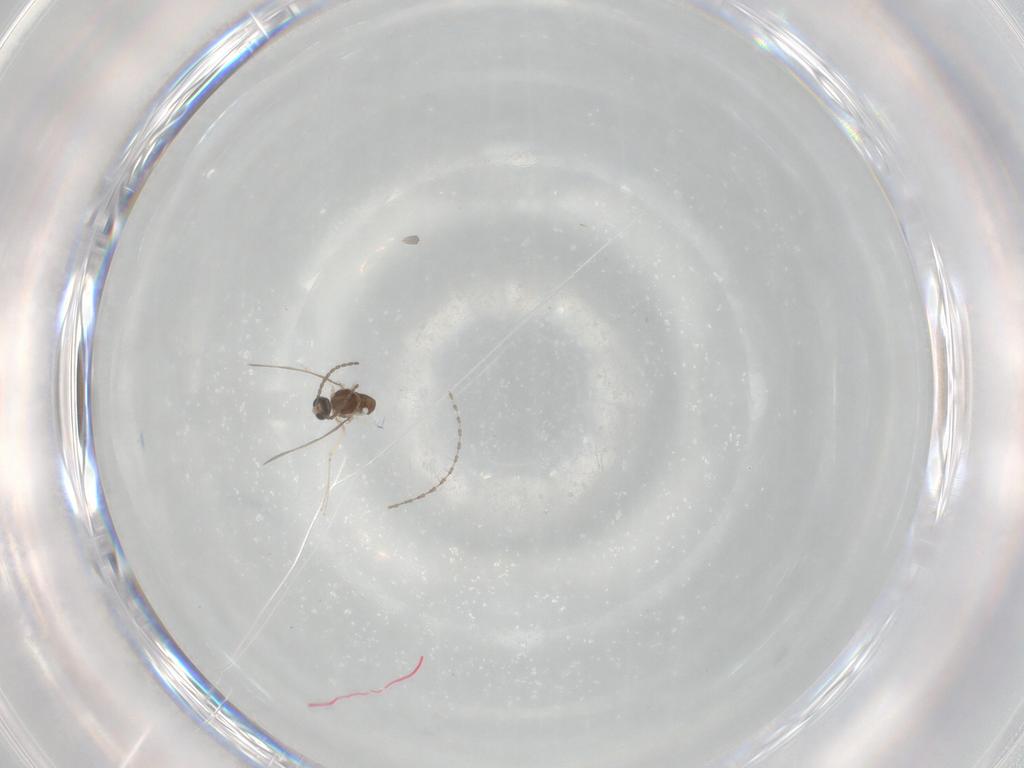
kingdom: Animalia
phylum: Arthropoda
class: Insecta
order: Diptera
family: Cecidomyiidae
